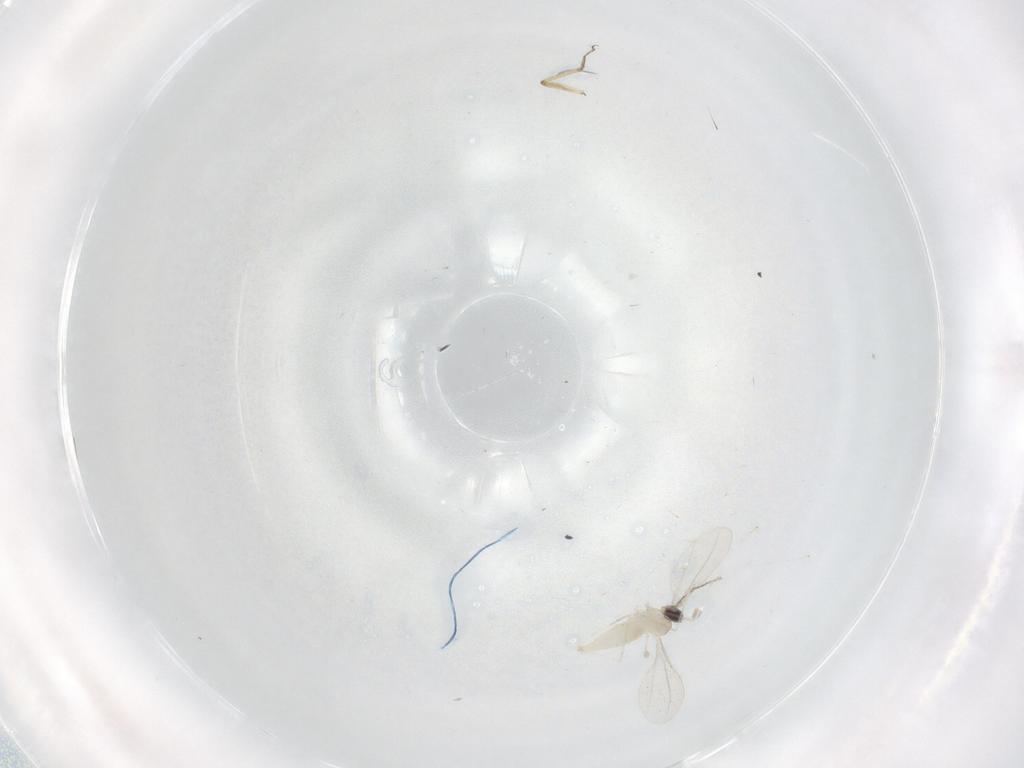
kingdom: Animalia
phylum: Arthropoda
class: Insecta
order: Diptera
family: Cecidomyiidae
